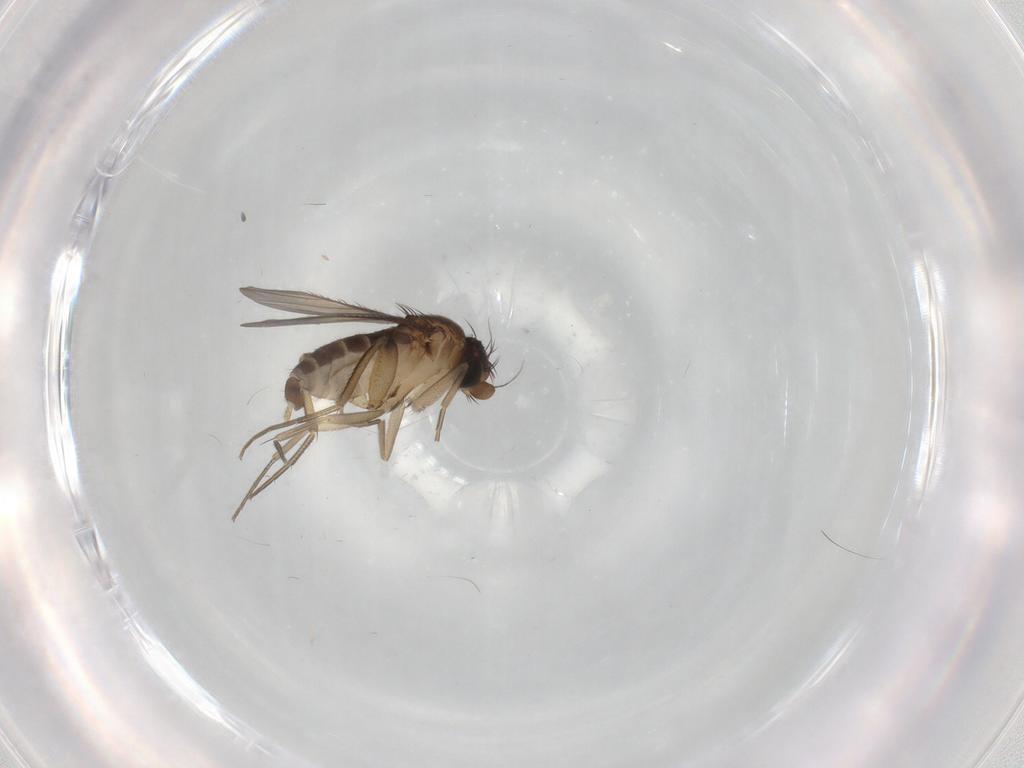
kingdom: Animalia
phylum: Arthropoda
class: Insecta
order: Diptera
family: Phoridae
